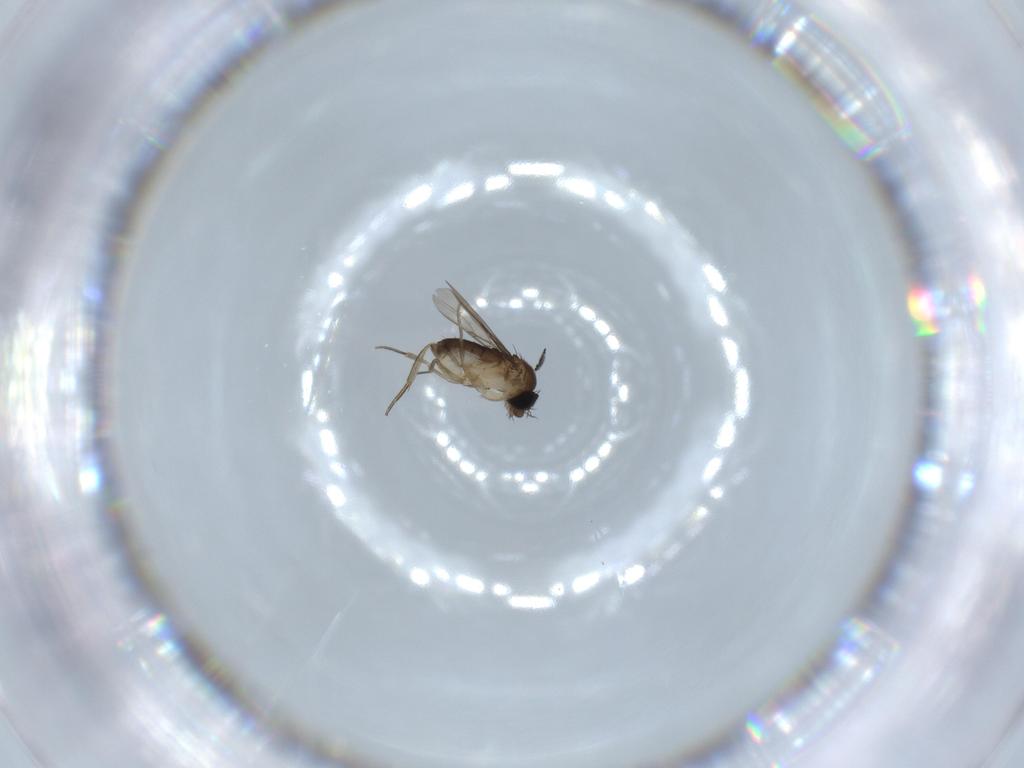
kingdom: Animalia
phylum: Arthropoda
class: Insecta
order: Diptera
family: Phoridae
